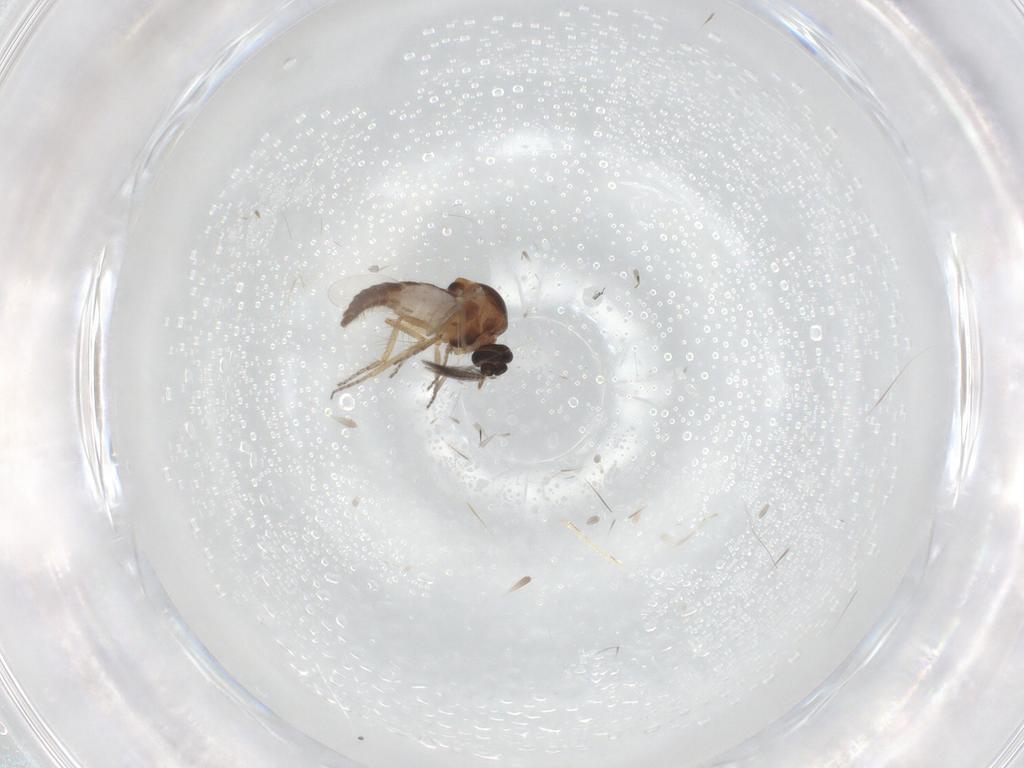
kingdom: Animalia
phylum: Arthropoda
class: Insecta
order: Diptera
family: Ceratopogonidae
